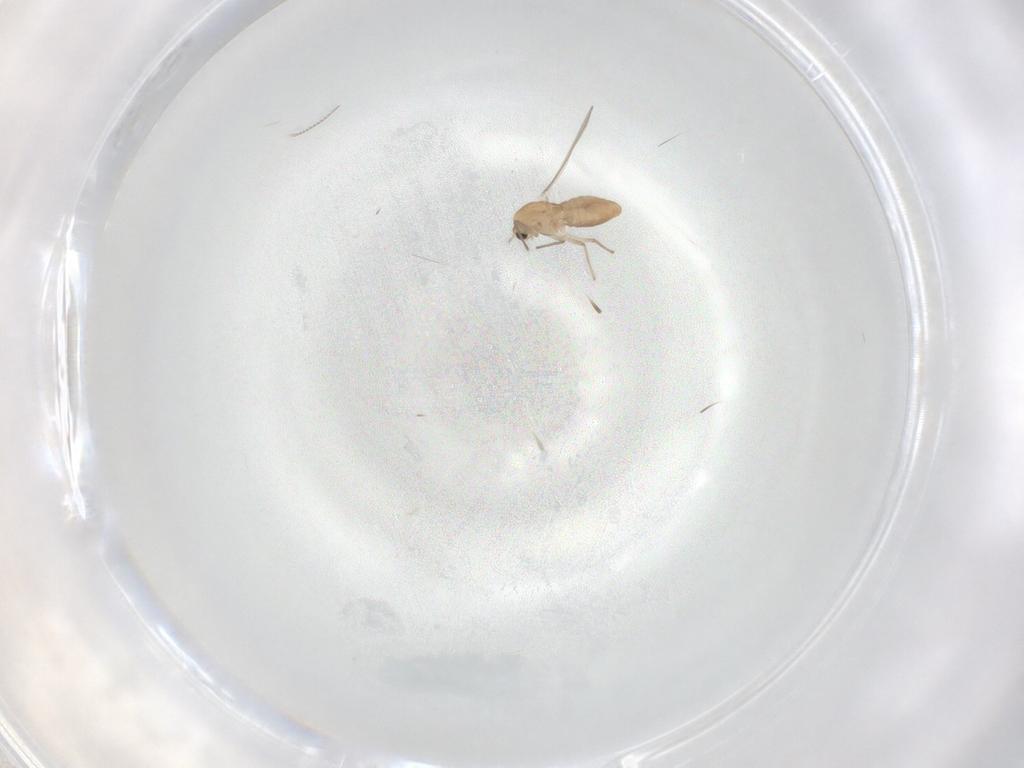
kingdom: Animalia
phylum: Arthropoda
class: Insecta
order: Diptera
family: Chironomidae
